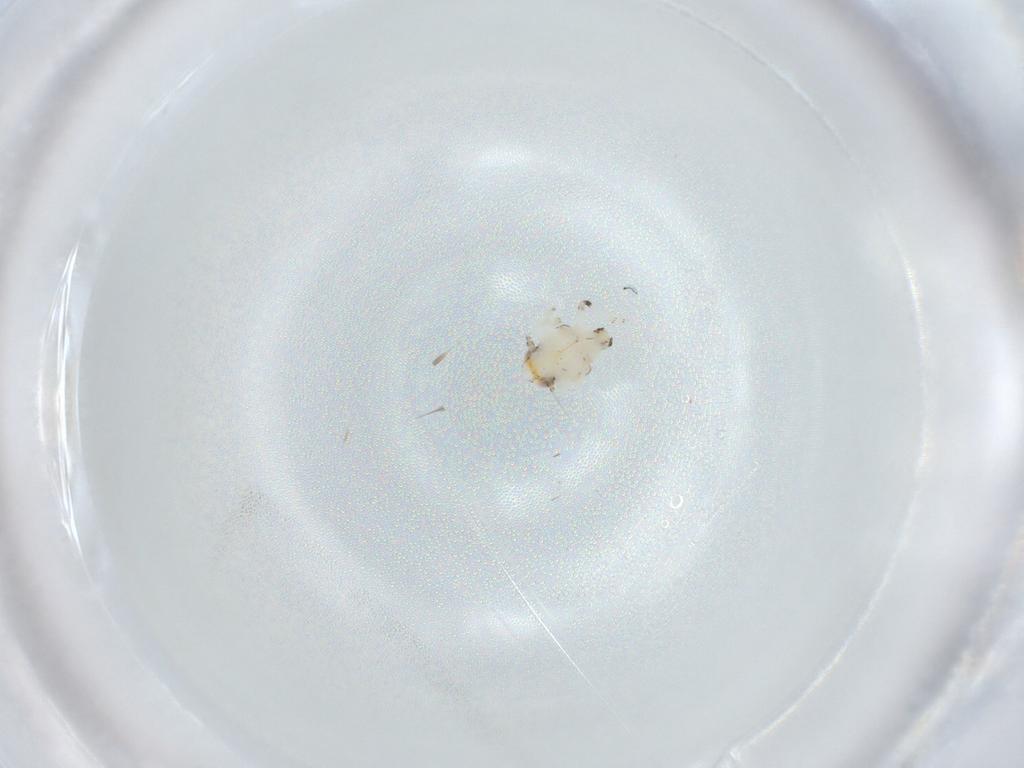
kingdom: Animalia
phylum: Arthropoda
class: Insecta
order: Hemiptera
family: Nogodinidae
